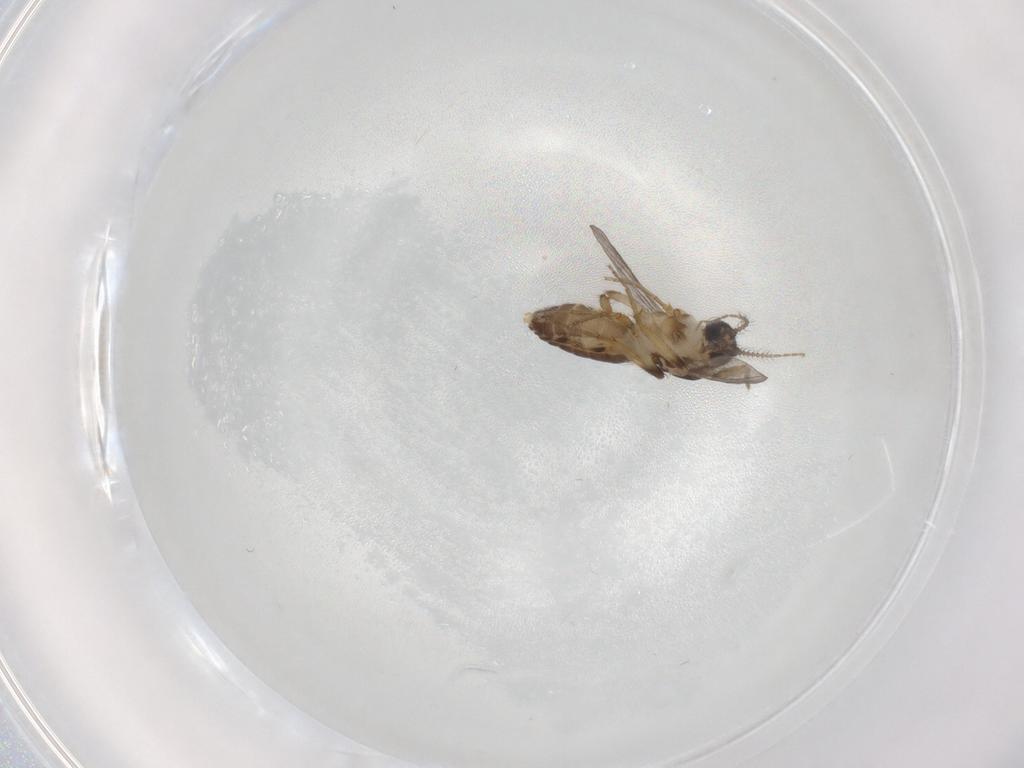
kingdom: Animalia
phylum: Arthropoda
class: Insecta
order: Diptera
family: Ceratopogonidae
